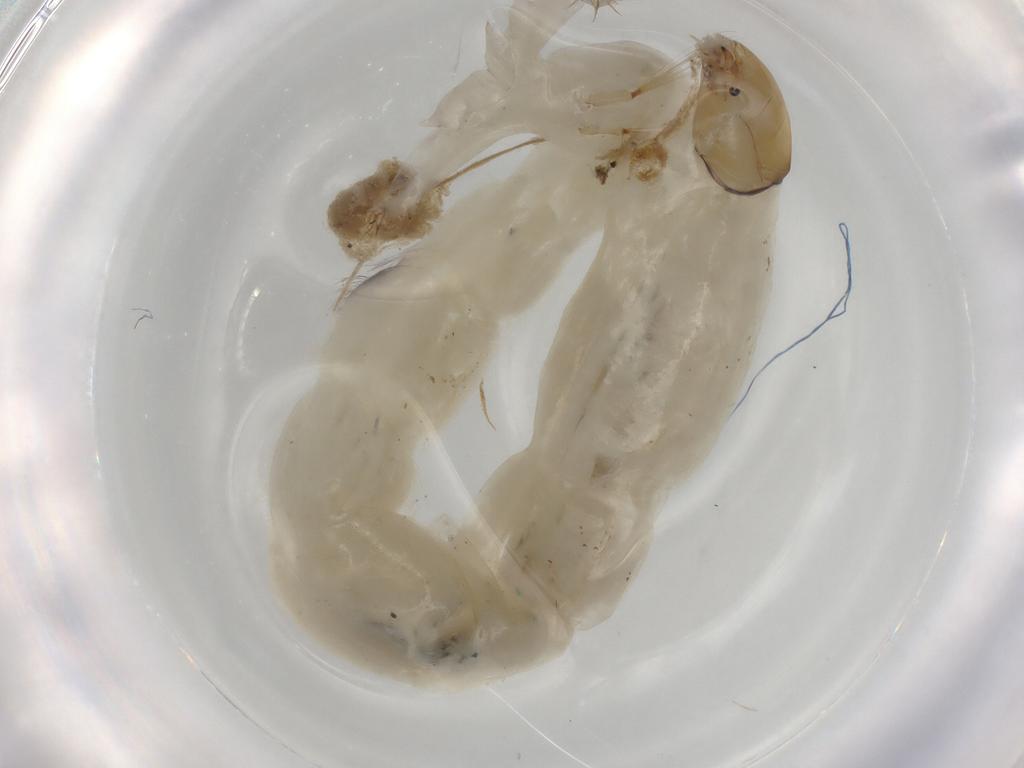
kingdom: Animalia
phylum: Arthropoda
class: Insecta
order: Diptera
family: Chironomidae
